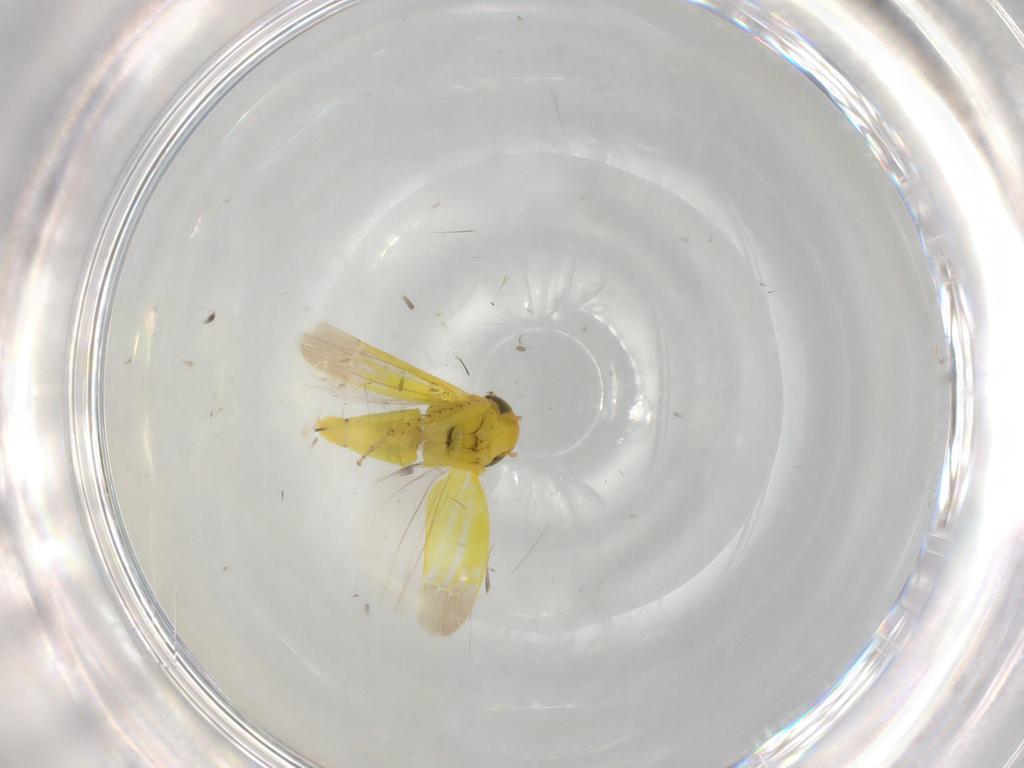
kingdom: Animalia
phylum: Arthropoda
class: Insecta
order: Hemiptera
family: Cicadellidae
